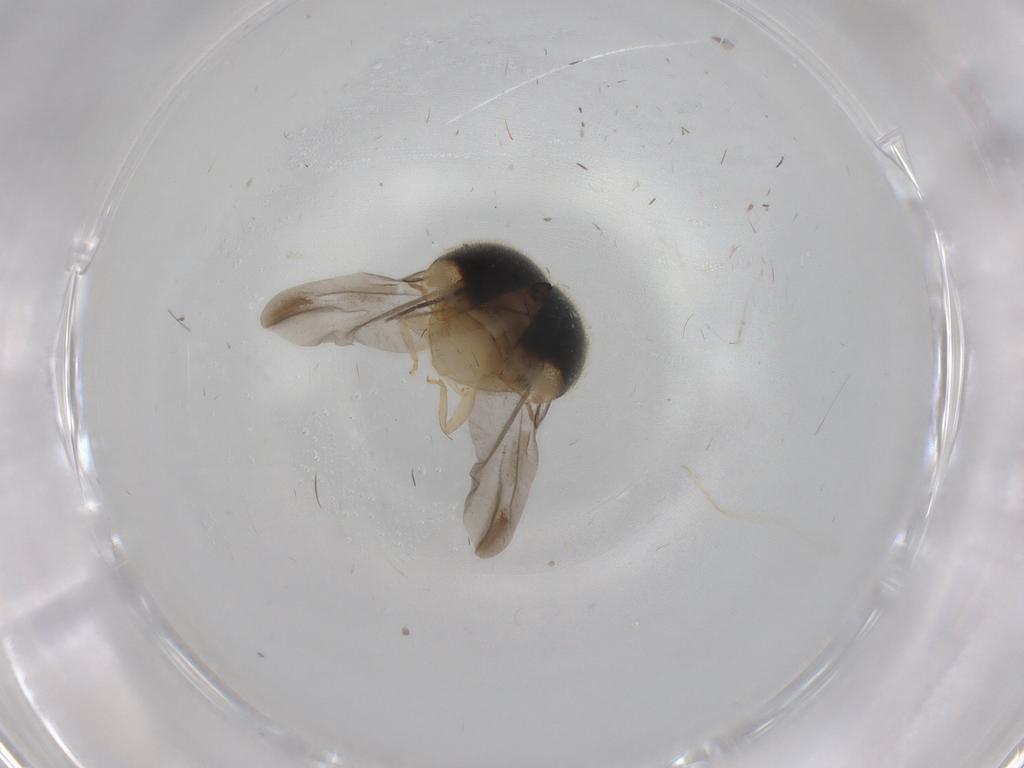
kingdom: Animalia
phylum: Arthropoda
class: Insecta
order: Coleoptera
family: Coccinellidae
